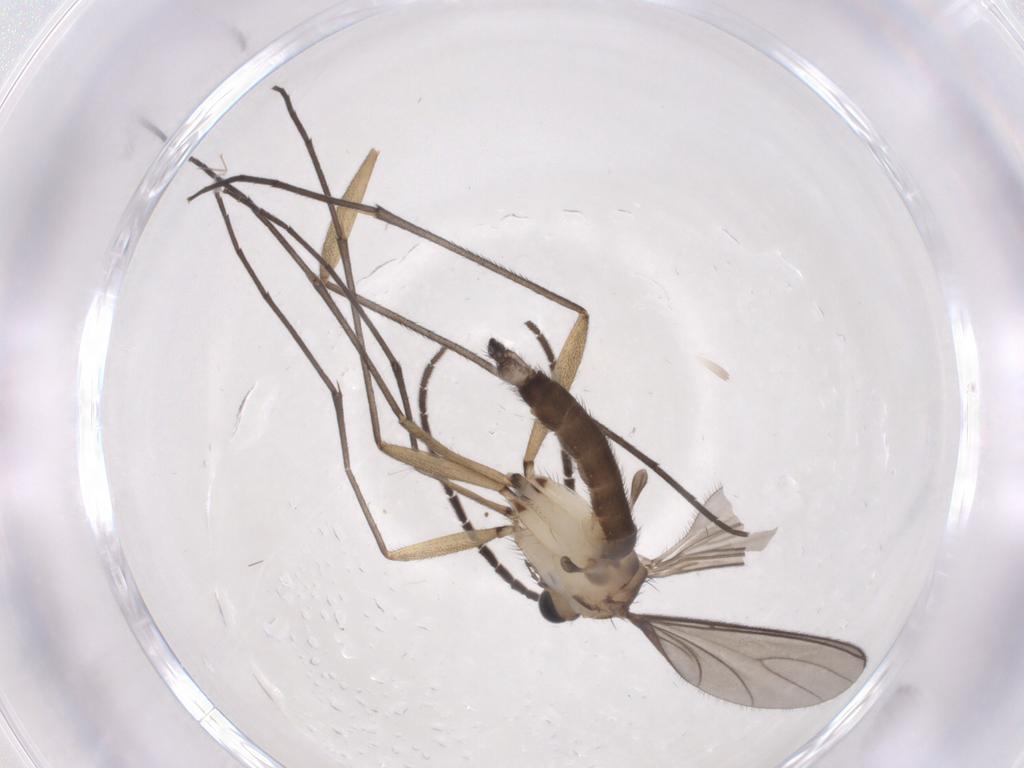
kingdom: Animalia
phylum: Arthropoda
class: Insecta
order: Diptera
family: Sciaridae
